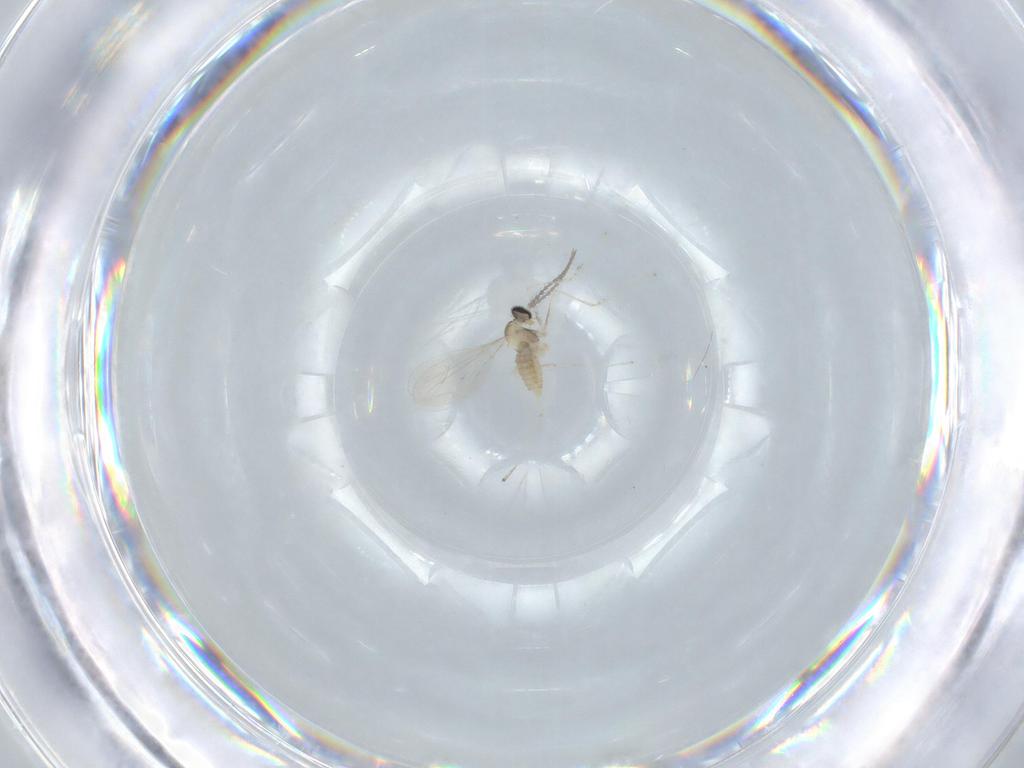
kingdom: Animalia
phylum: Arthropoda
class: Insecta
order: Diptera
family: Cecidomyiidae
